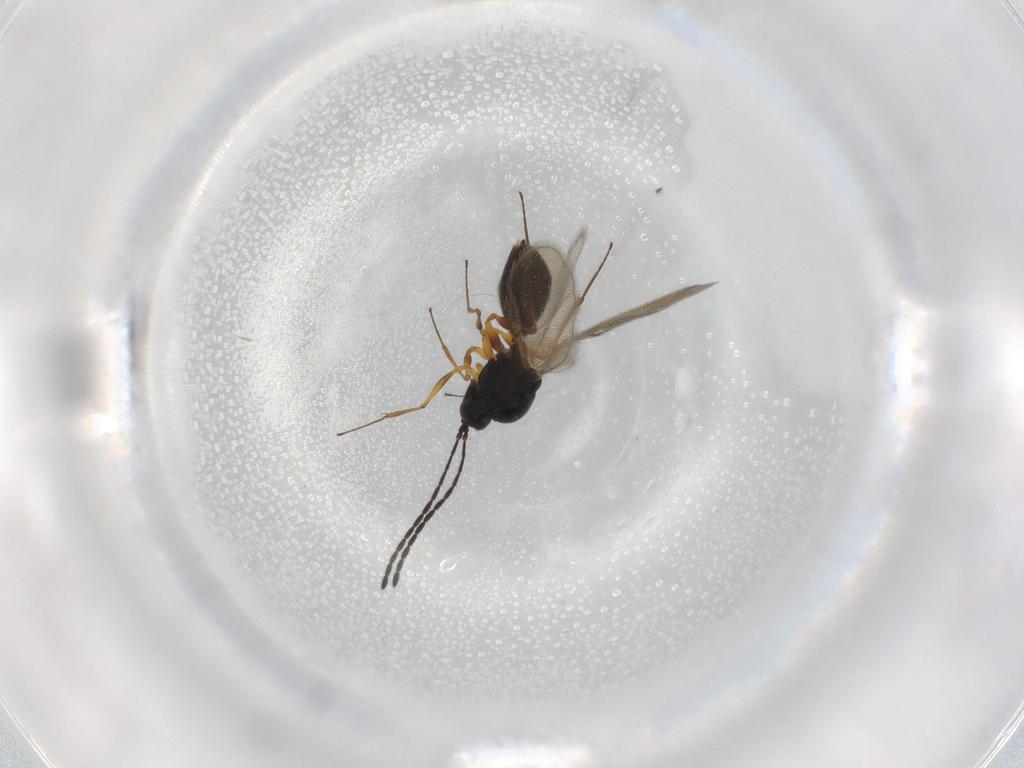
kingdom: Animalia
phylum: Arthropoda
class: Insecta
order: Hymenoptera
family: Figitidae
